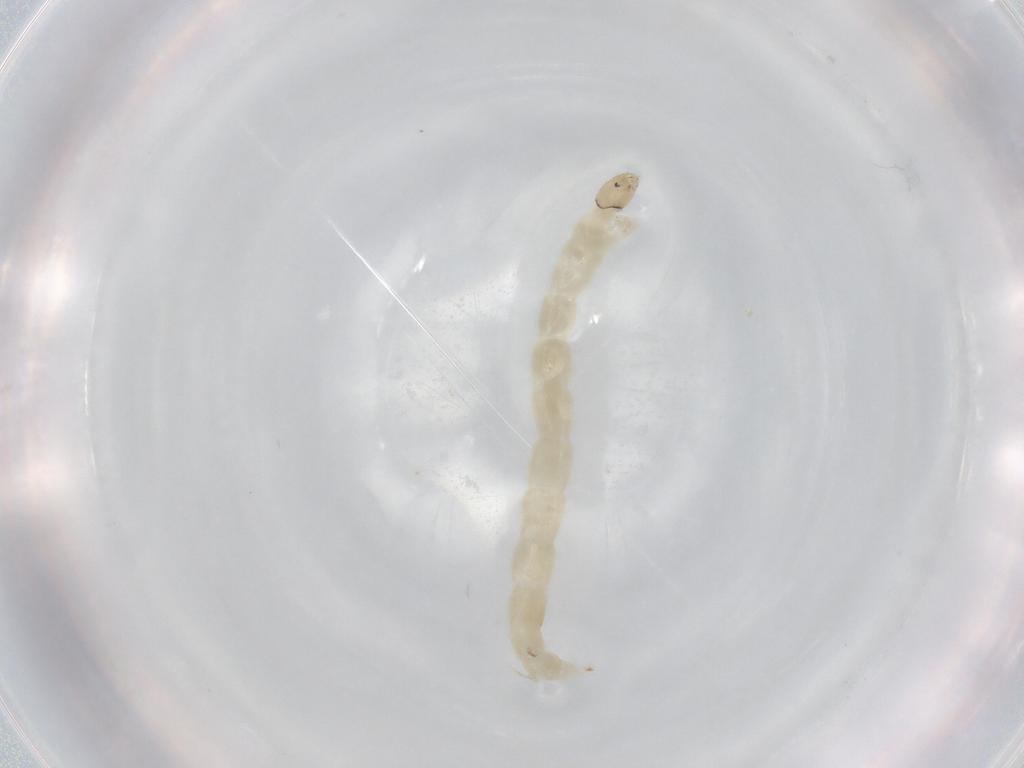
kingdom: Animalia
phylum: Arthropoda
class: Insecta
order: Diptera
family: Chironomidae
